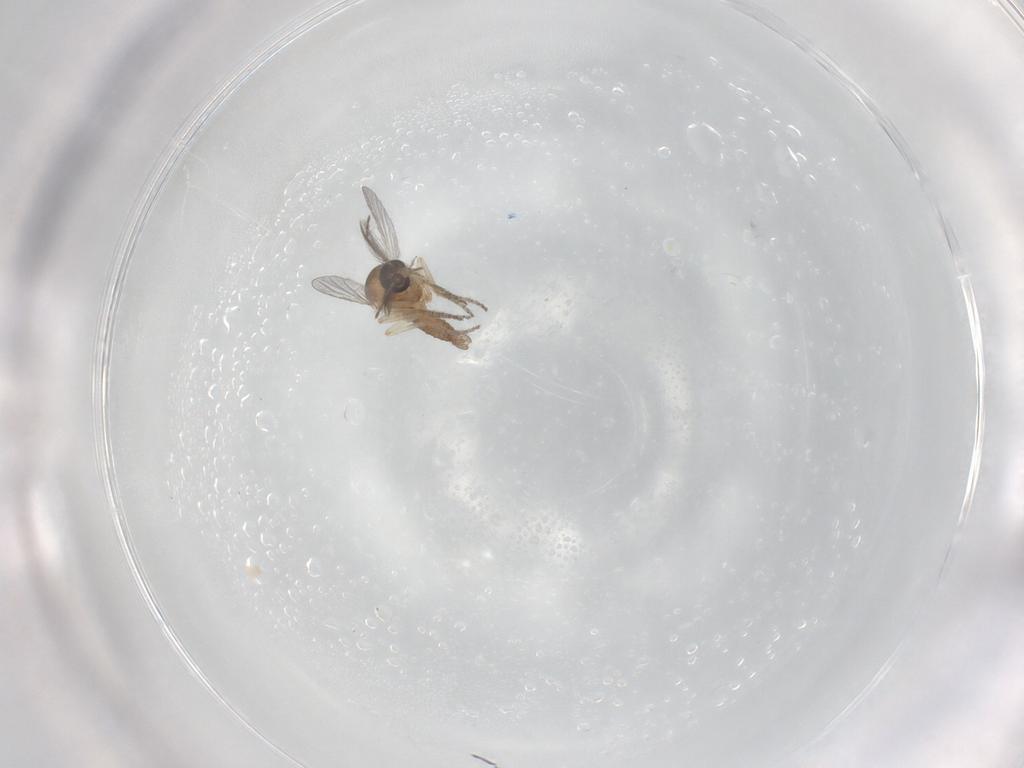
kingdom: Animalia
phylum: Arthropoda
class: Insecta
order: Diptera
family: Limoniidae
